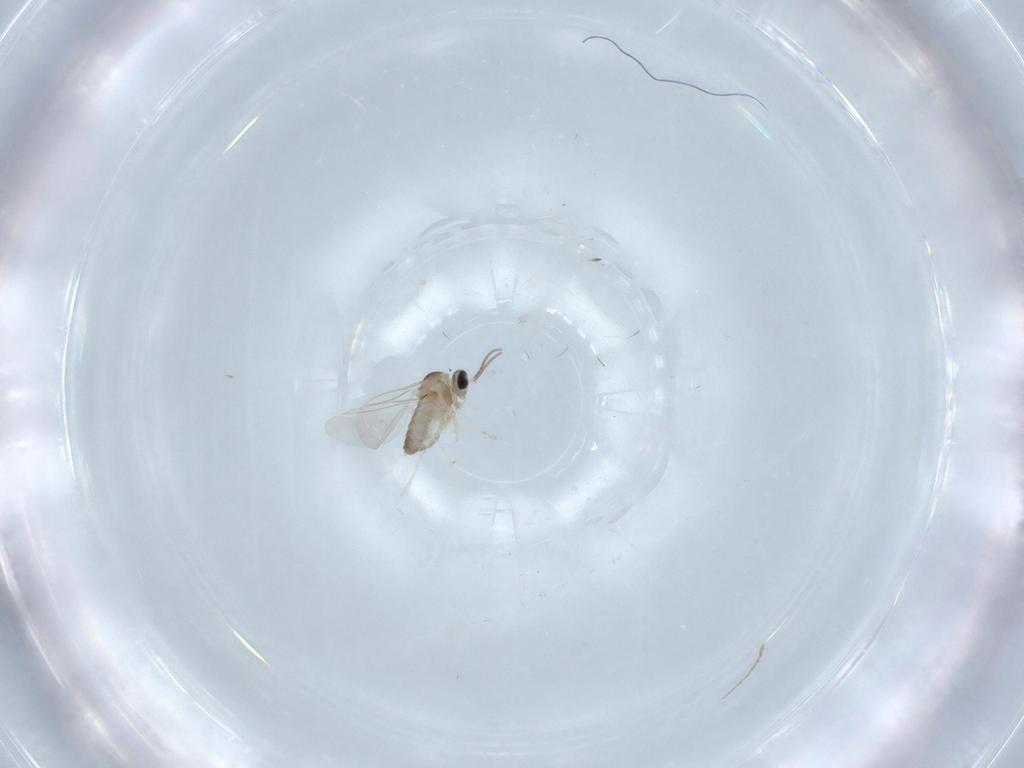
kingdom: Animalia
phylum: Arthropoda
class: Insecta
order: Diptera
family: Cecidomyiidae
